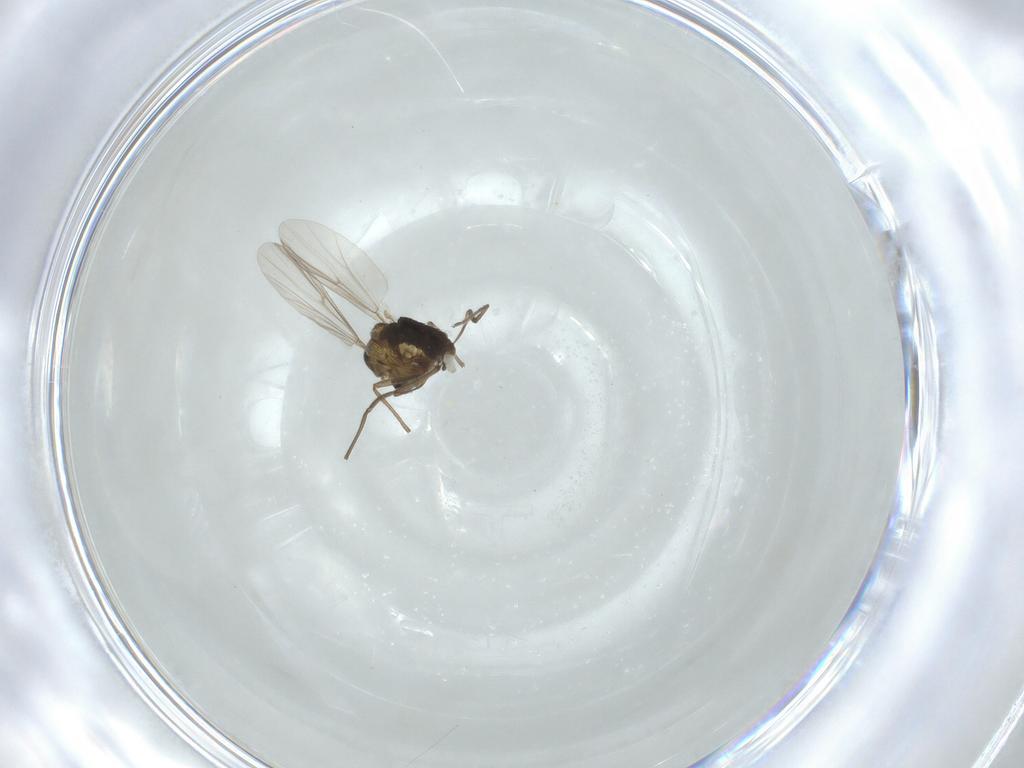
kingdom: Animalia
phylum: Arthropoda
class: Insecta
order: Diptera
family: Chironomidae
